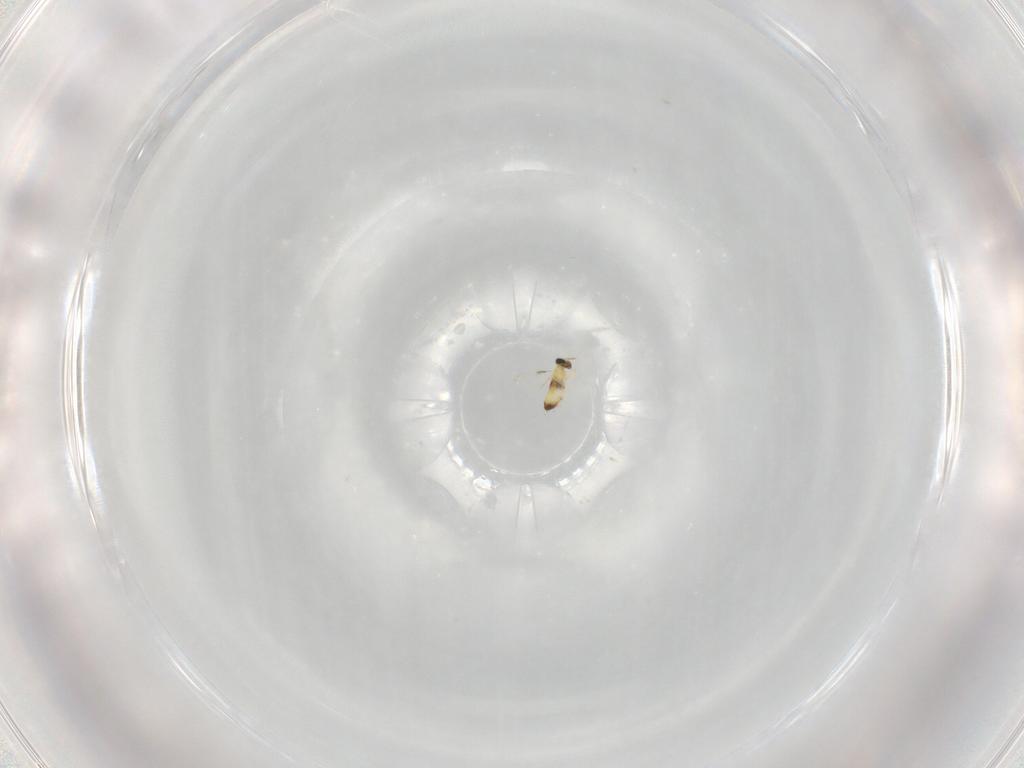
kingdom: Animalia
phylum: Arthropoda
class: Insecta
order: Hymenoptera
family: Trichogrammatidae
